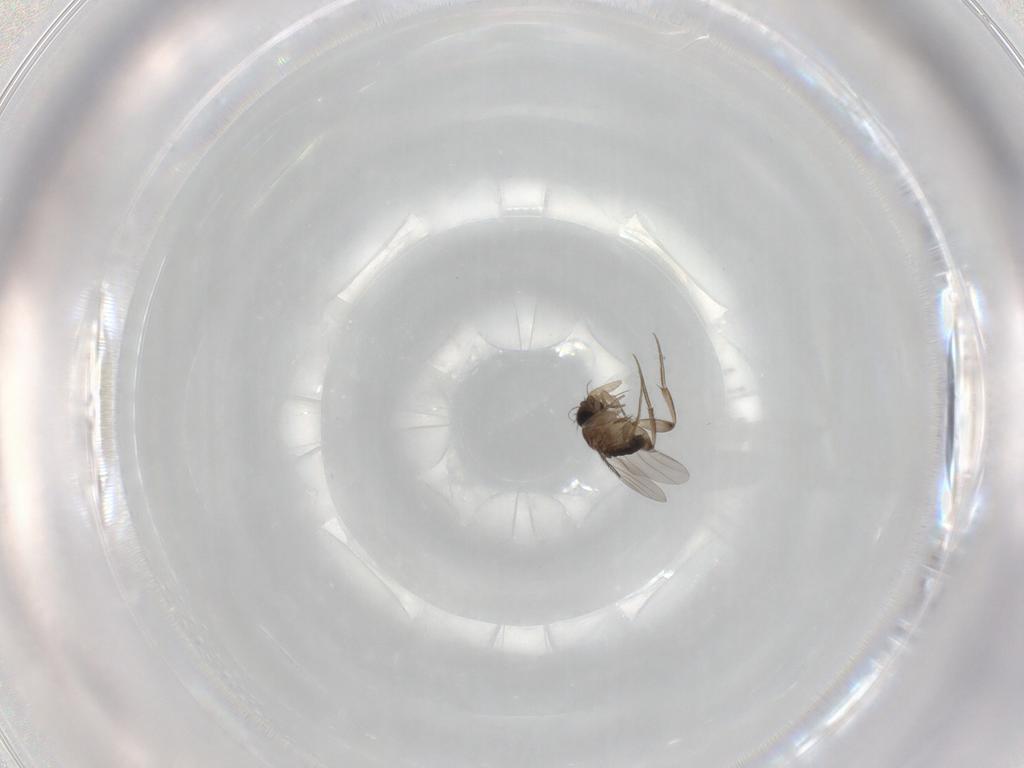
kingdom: Animalia
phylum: Arthropoda
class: Insecta
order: Diptera
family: Phoridae
